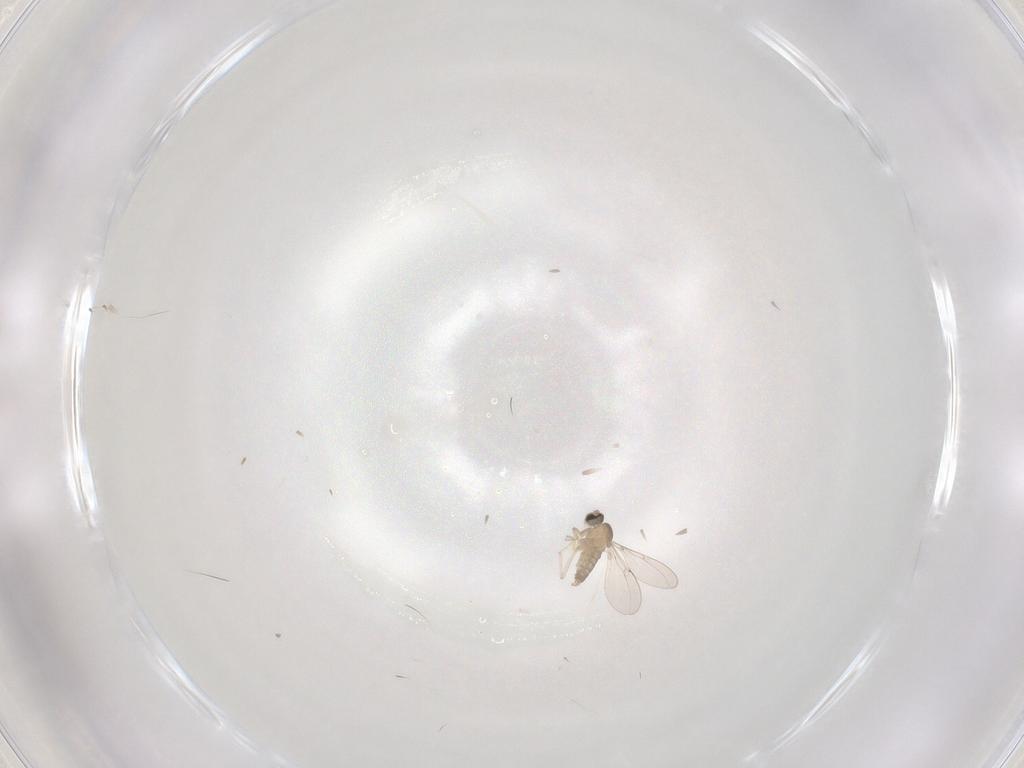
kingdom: Animalia
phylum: Arthropoda
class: Insecta
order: Diptera
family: Cecidomyiidae
